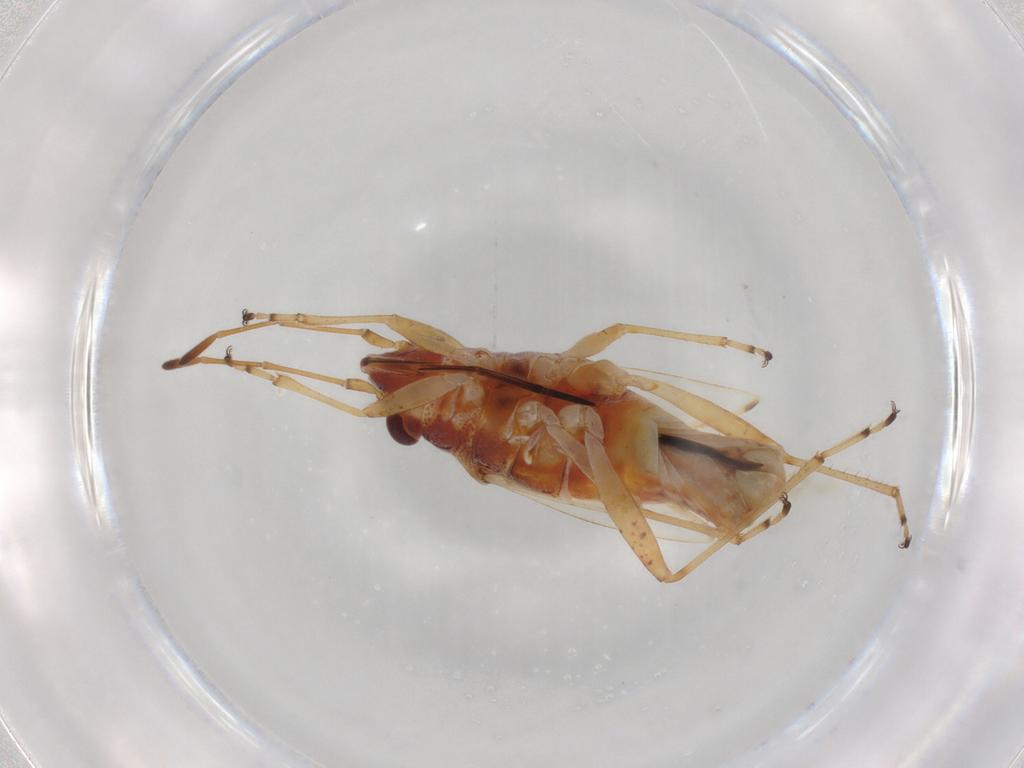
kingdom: Animalia
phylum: Arthropoda
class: Insecta
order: Hemiptera
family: Lygaeidae
